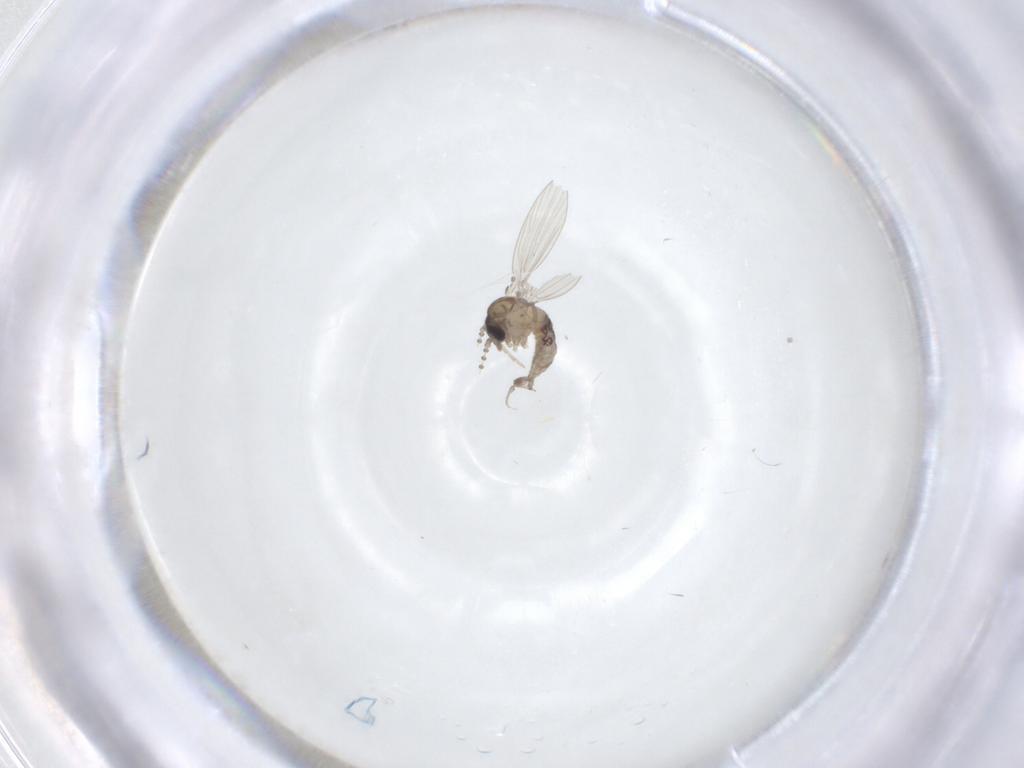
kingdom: Animalia
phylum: Arthropoda
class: Insecta
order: Diptera
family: Psychodidae
